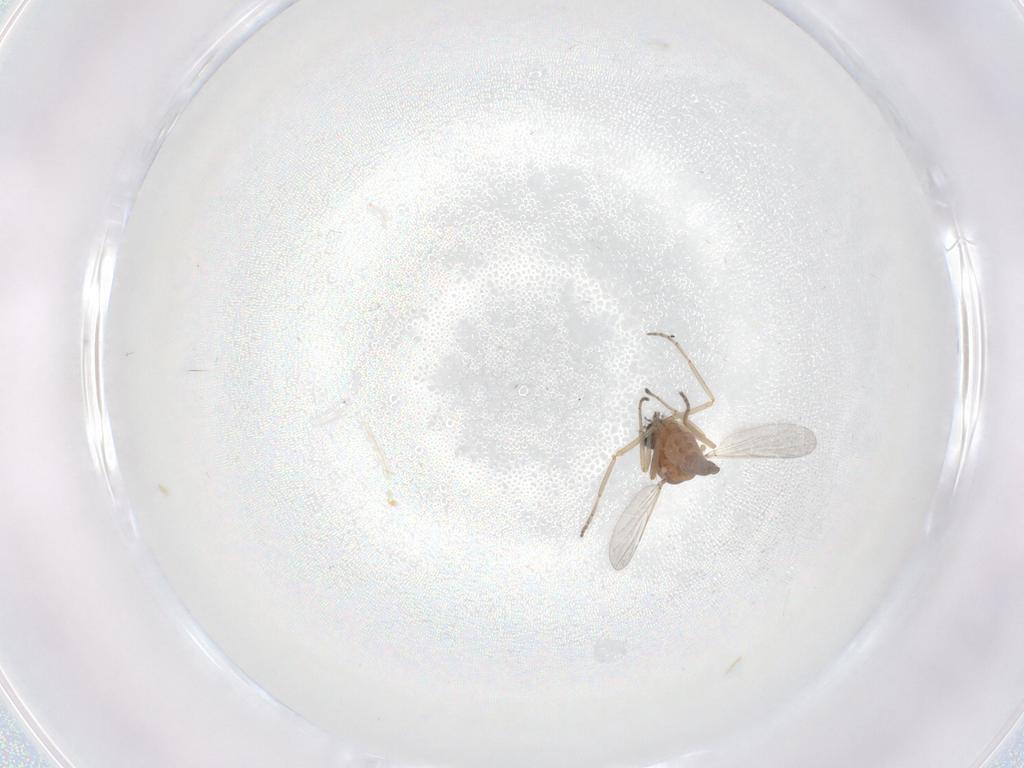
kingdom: Animalia
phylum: Arthropoda
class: Insecta
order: Diptera
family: Ceratopogonidae
